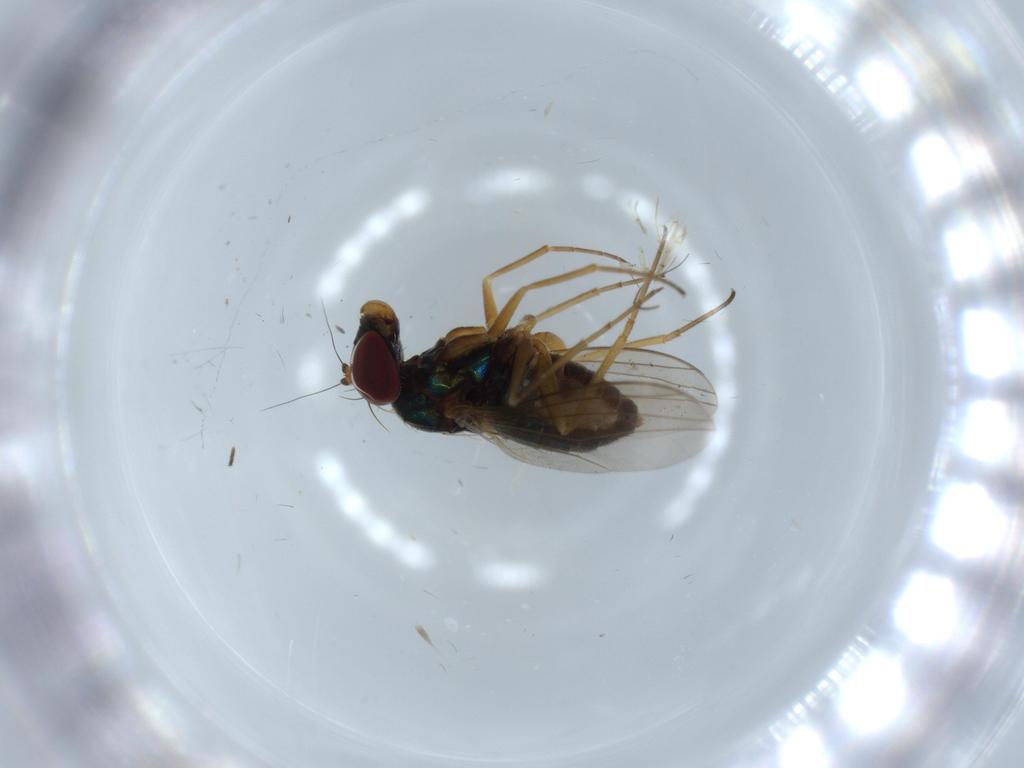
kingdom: Animalia
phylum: Arthropoda
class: Insecta
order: Diptera
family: Dolichopodidae
